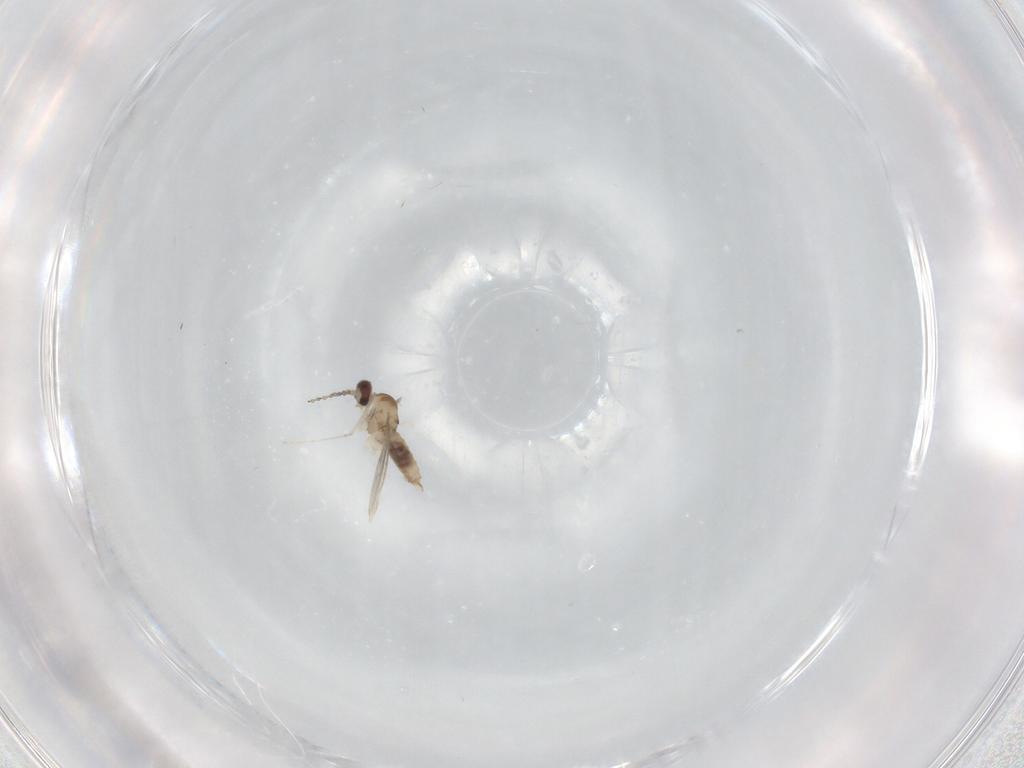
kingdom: Animalia
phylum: Arthropoda
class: Insecta
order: Diptera
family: Cecidomyiidae
